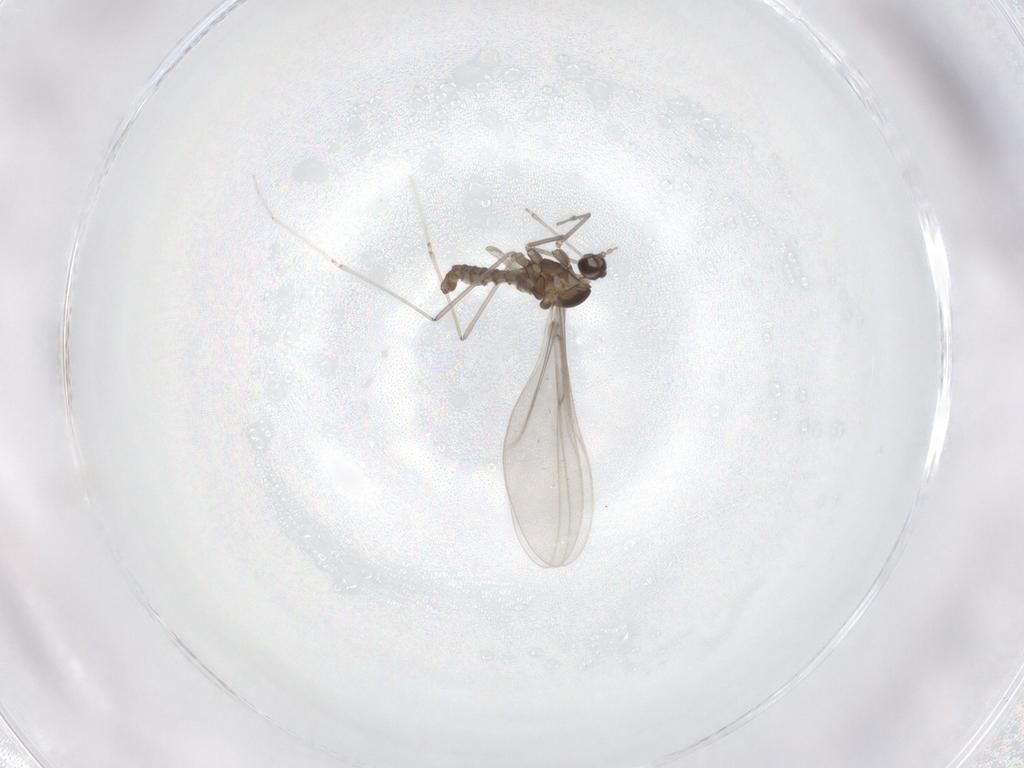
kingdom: Animalia
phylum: Arthropoda
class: Insecta
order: Diptera
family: Cecidomyiidae
